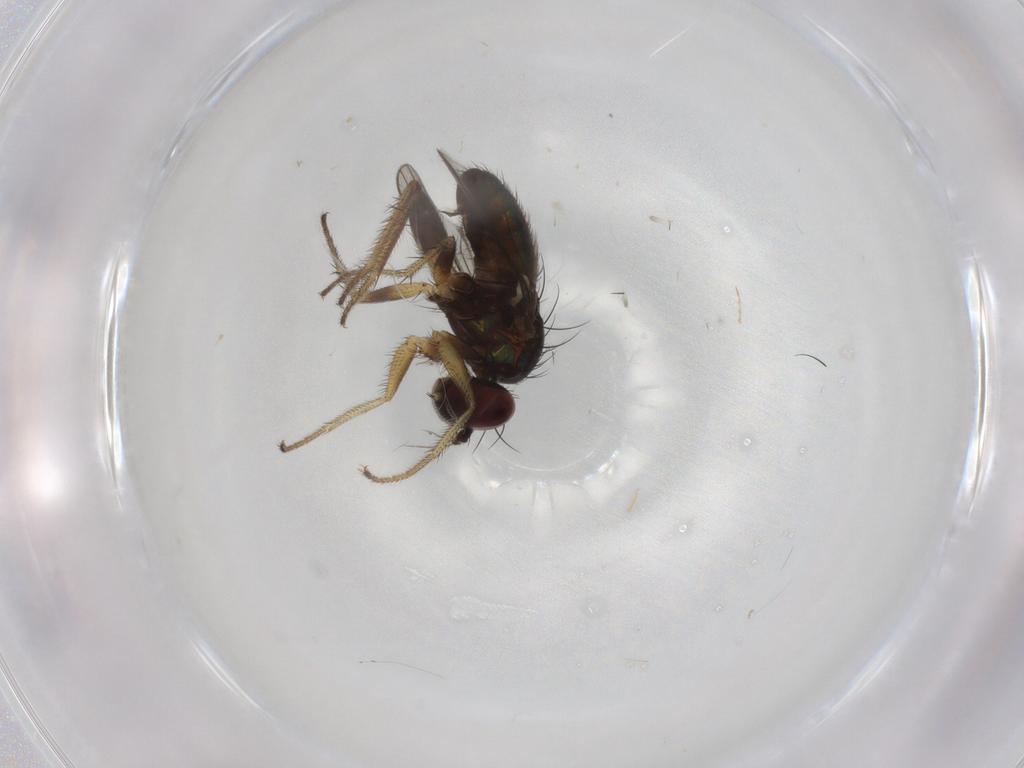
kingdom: Animalia
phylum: Arthropoda
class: Insecta
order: Diptera
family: Dolichopodidae
